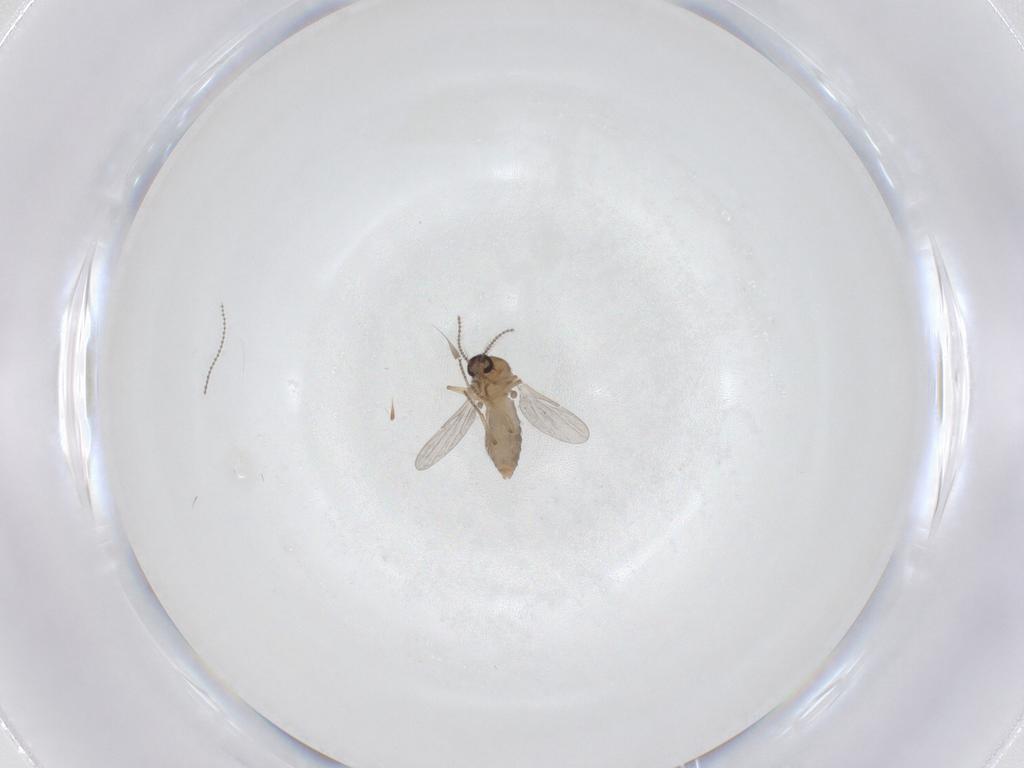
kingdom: Animalia
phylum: Arthropoda
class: Insecta
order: Diptera
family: Ceratopogonidae
